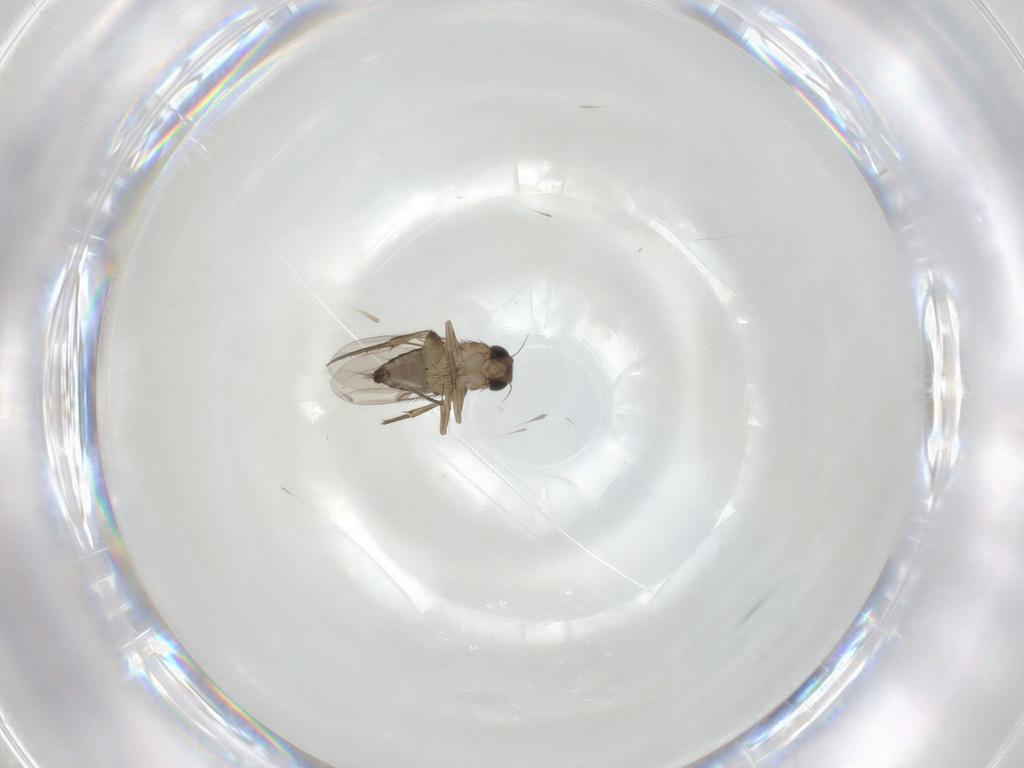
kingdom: Animalia
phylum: Arthropoda
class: Insecta
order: Diptera
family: Phoridae
